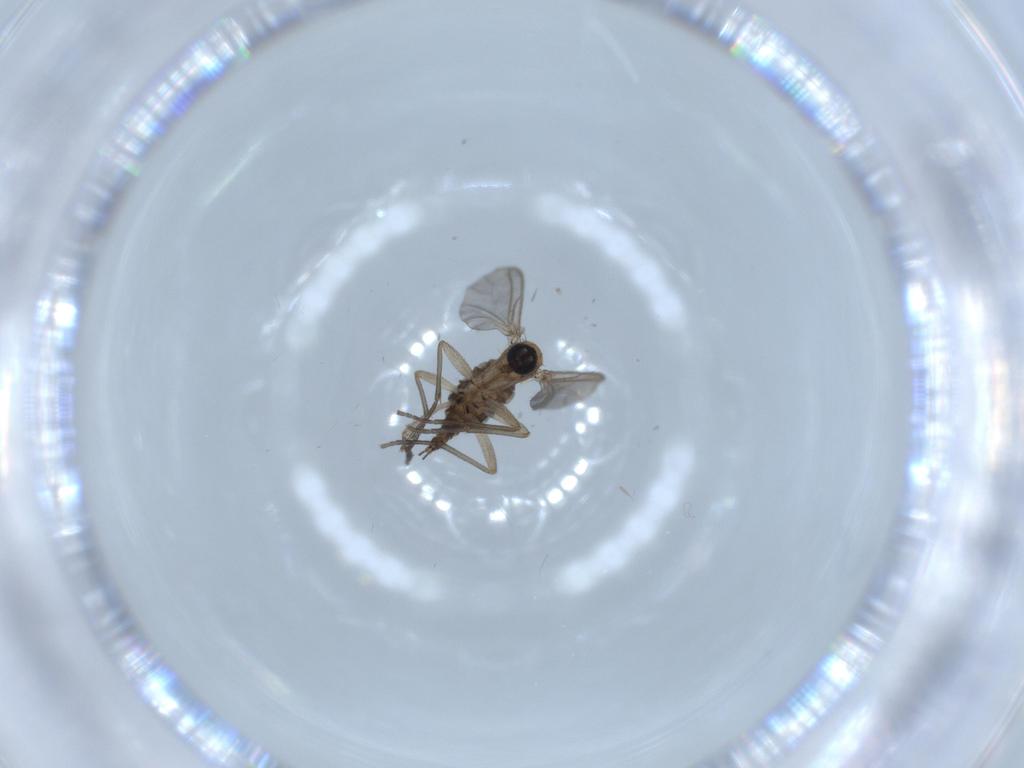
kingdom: Animalia
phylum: Arthropoda
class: Insecta
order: Diptera
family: Sciaridae
